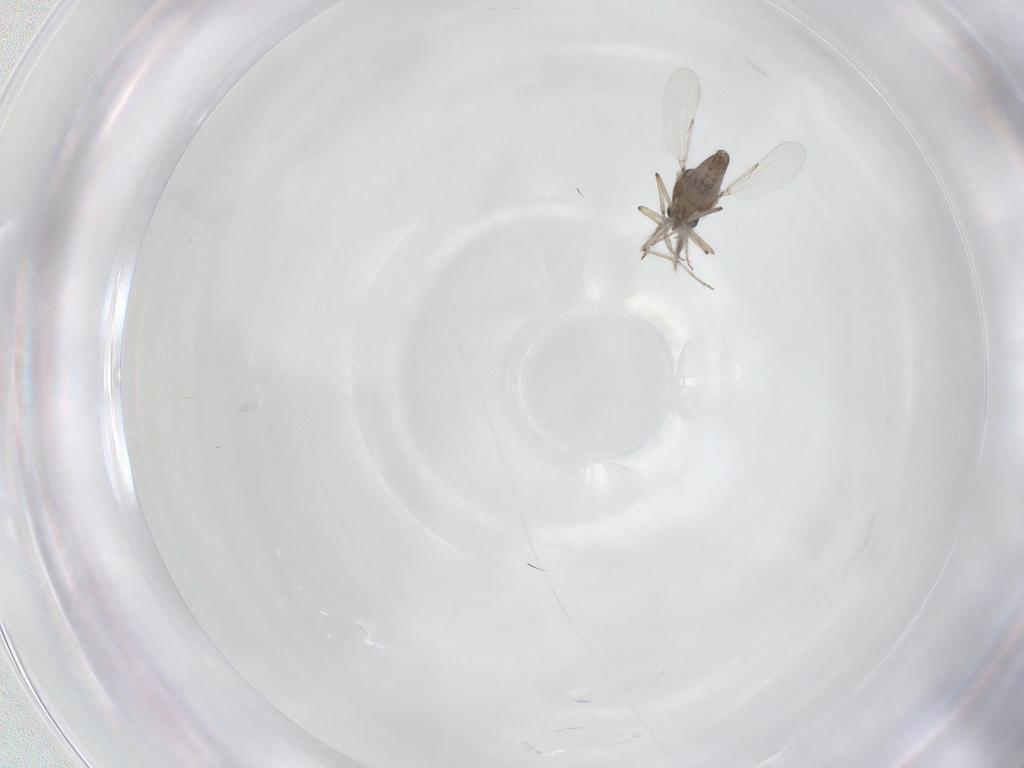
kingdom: Animalia
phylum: Arthropoda
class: Insecta
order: Diptera
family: Ceratopogonidae
